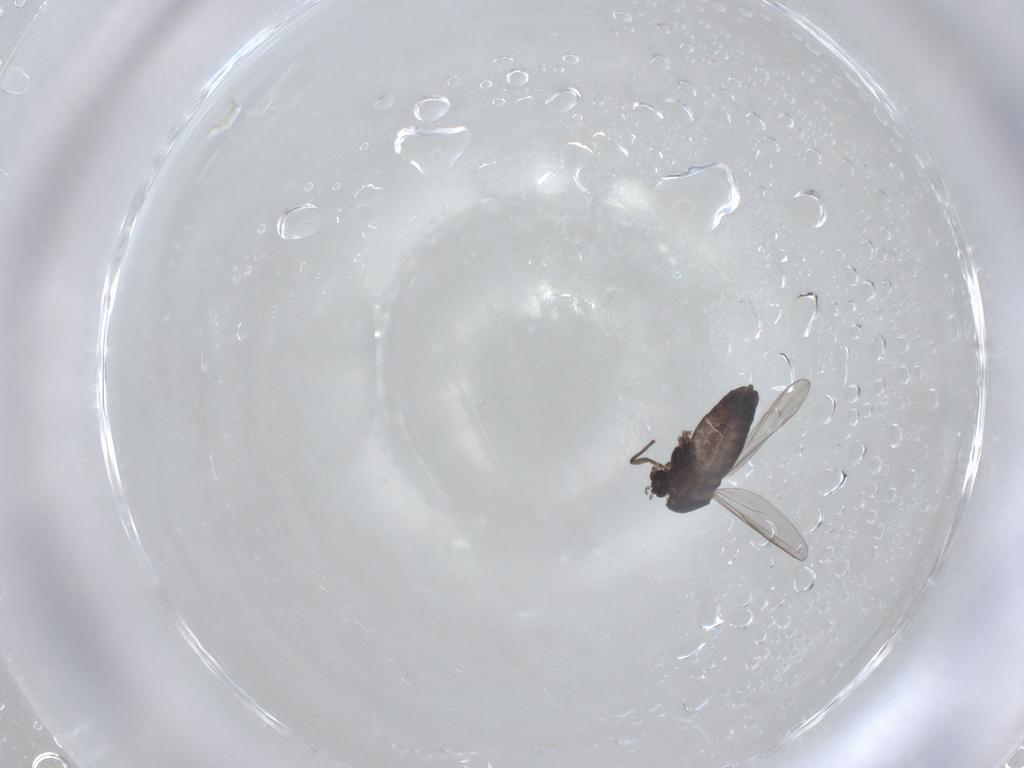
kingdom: Animalia
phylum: Arthropoda
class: Insecta
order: Diptera
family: Chironomidae
